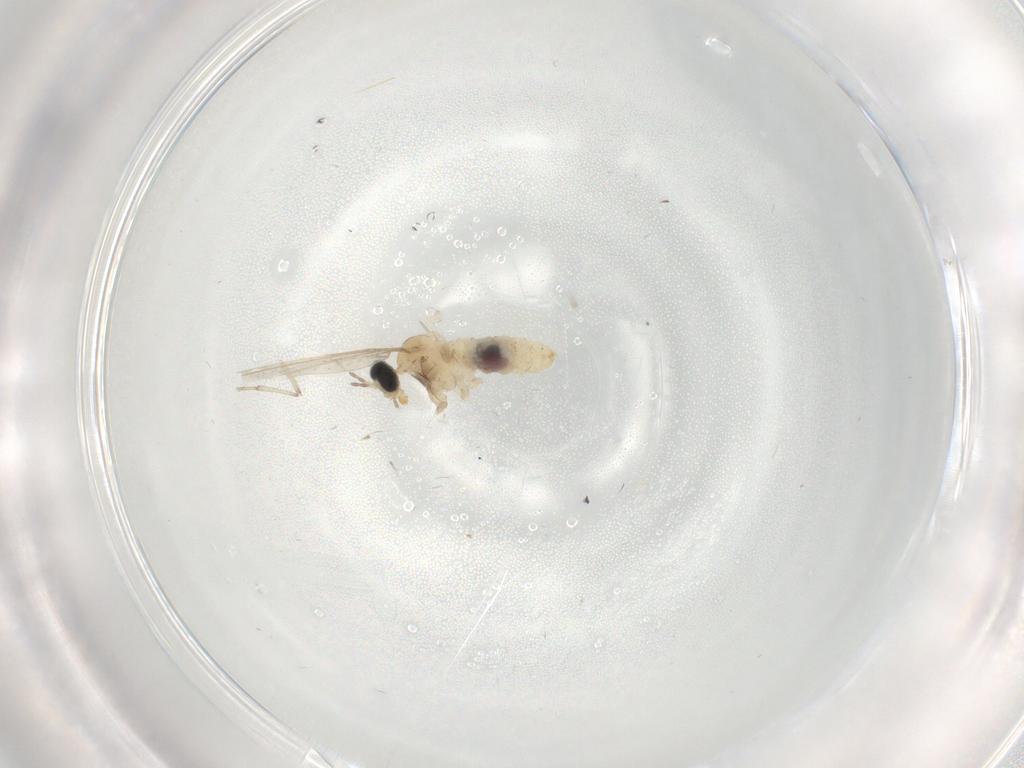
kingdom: Animalia
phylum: Arthropoda
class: Insecta
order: Diptera
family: Cecidomyiidae
